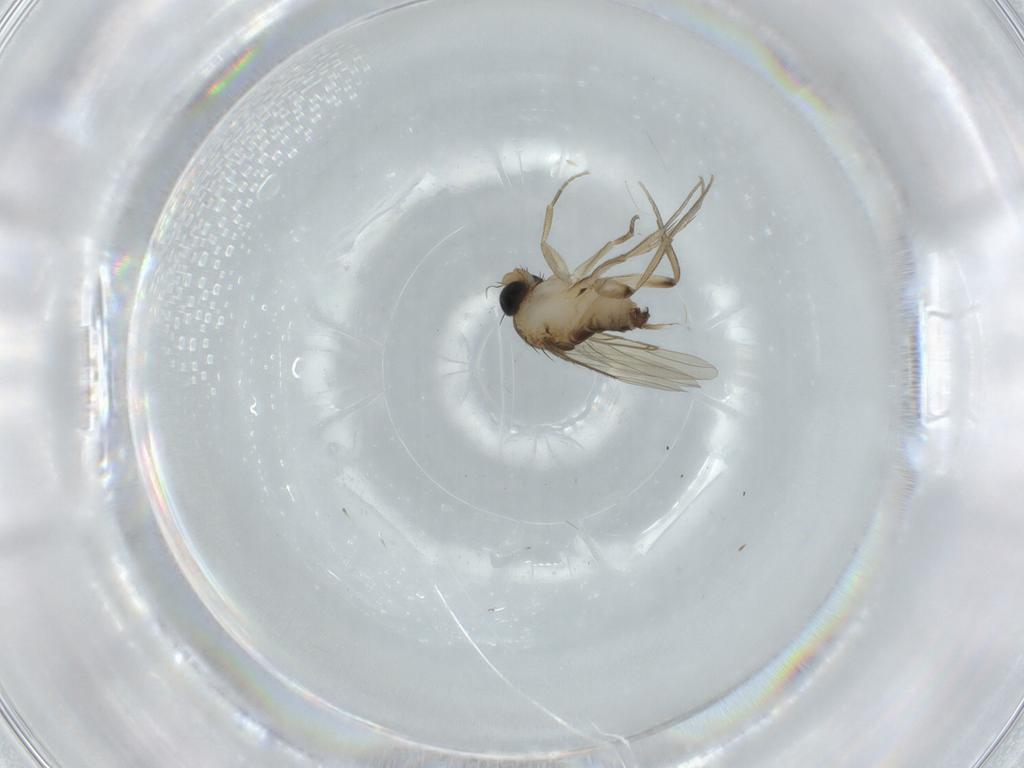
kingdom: Animalia
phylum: Arthropoda
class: Insecta
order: Diptera
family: Phoridae
